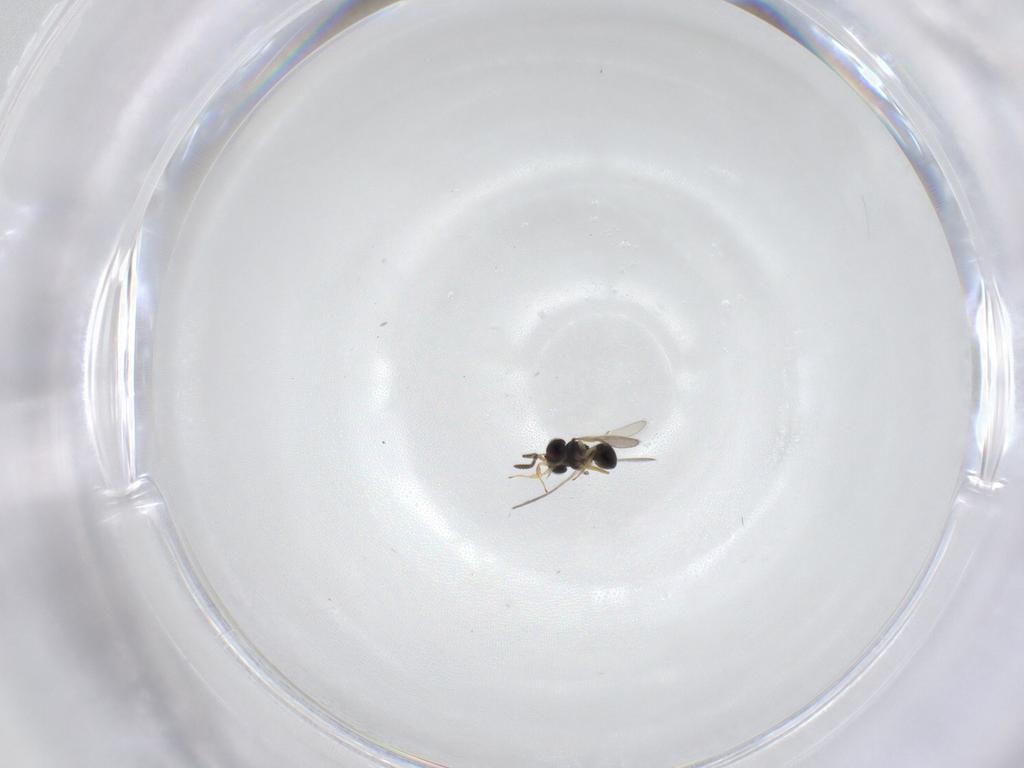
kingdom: Animalia
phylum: Arthropoda
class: Insecta
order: Hymenoptera
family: Scelionidae
